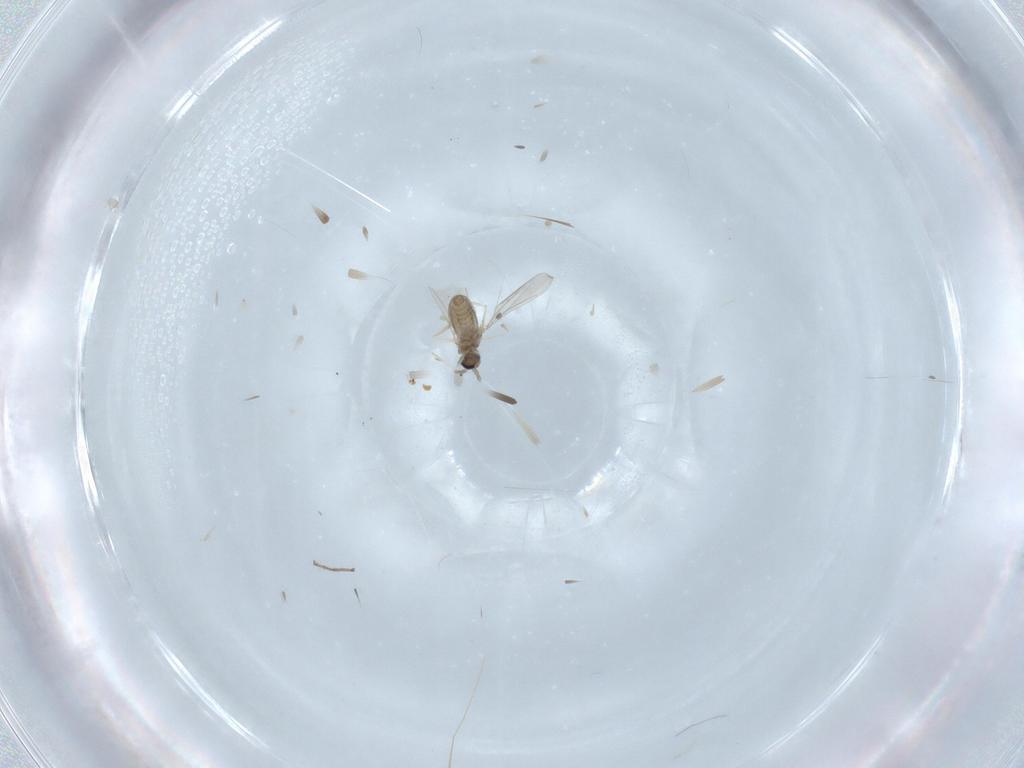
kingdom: Animalia
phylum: Arthropoda
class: Insecta
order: Diptera
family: Cecidomyiidae
